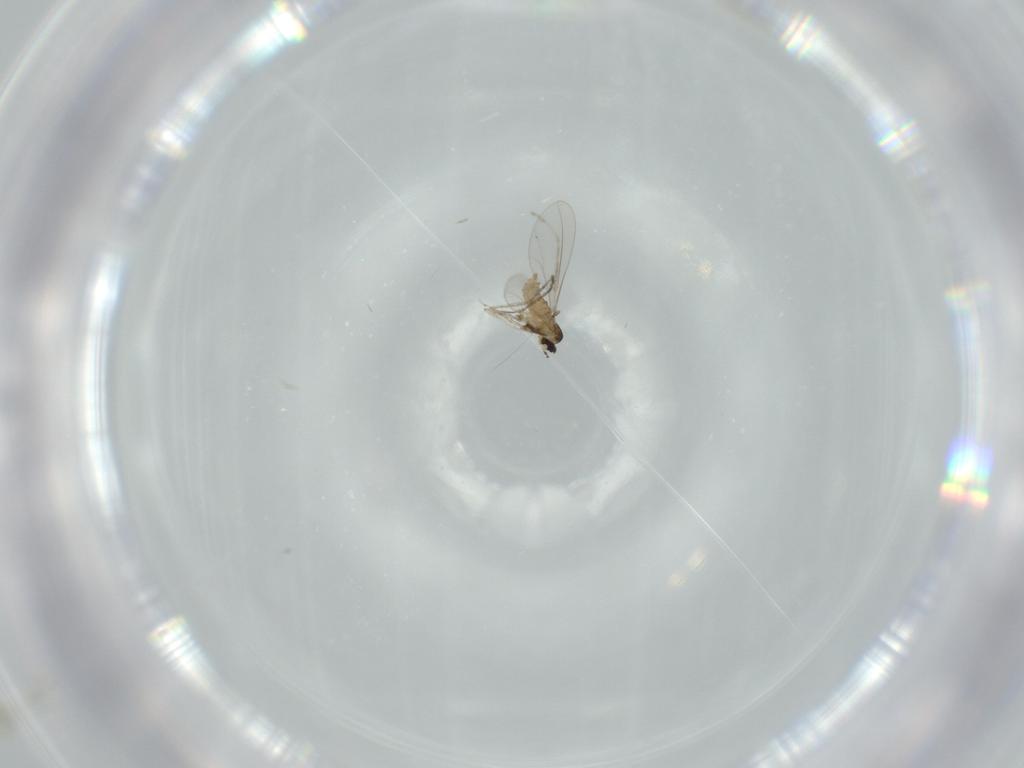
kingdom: Animalia
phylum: Arthropoda
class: Insecta
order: Diptera
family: Cecidomyiidae
